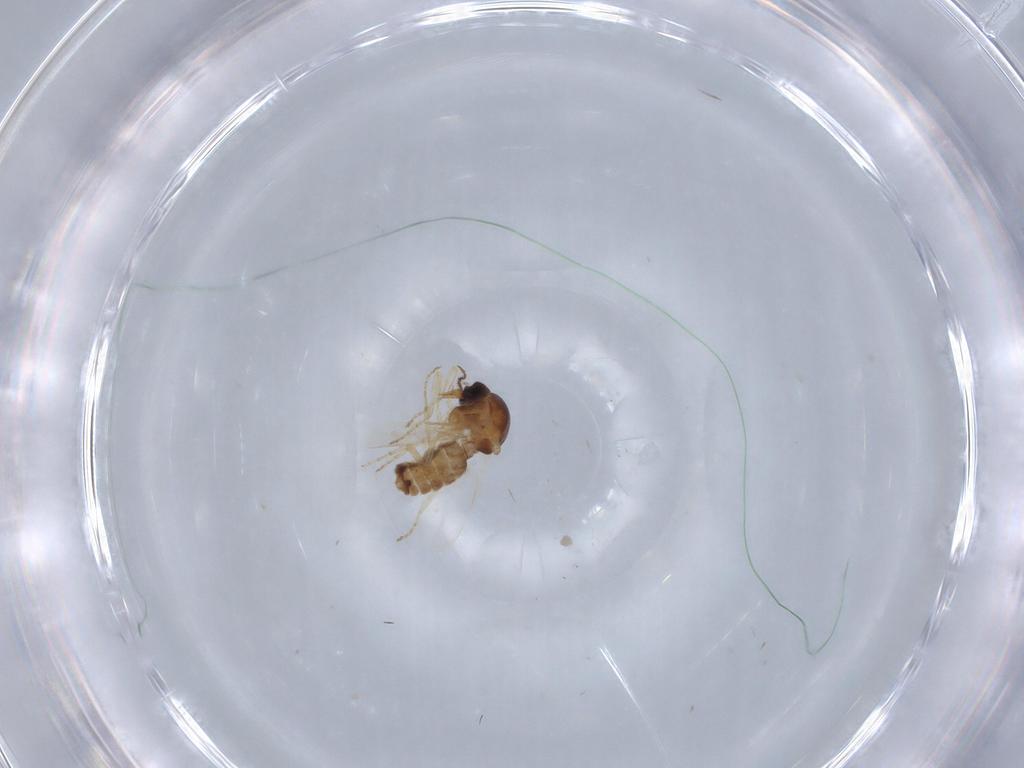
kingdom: Animalia
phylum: Arthropoda
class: Insecta
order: Diptera
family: Ceratopogonidae
